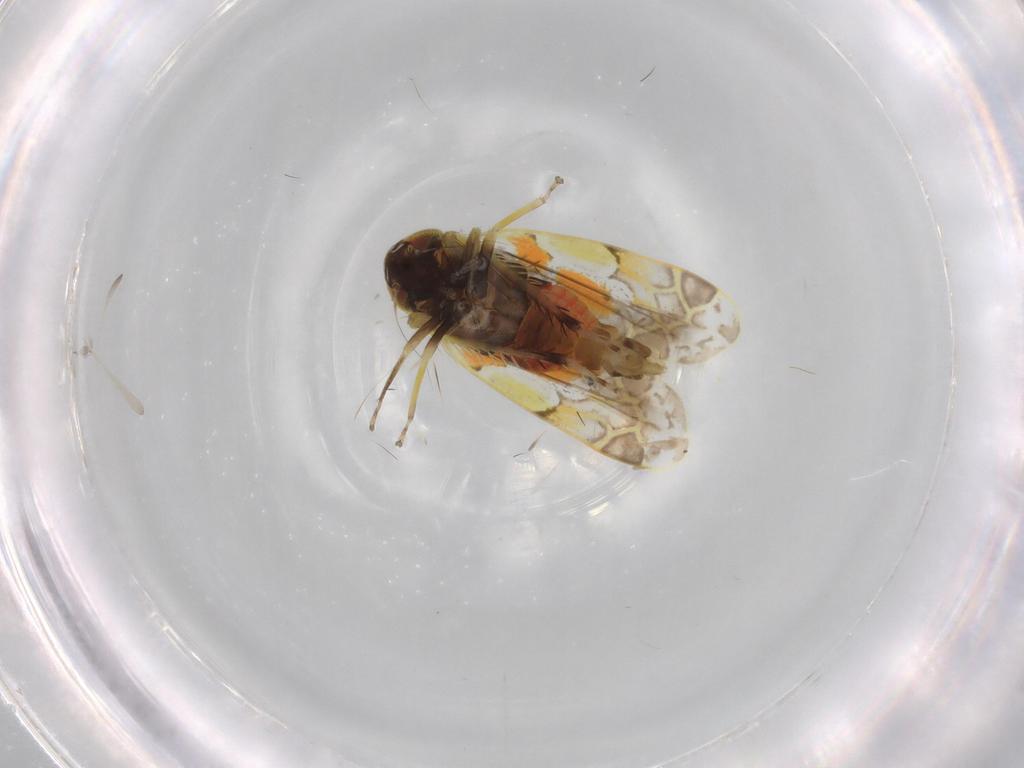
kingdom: Animalia
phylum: Arthropoda
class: Insecta
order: Hemiptera
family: Cicadellidae
